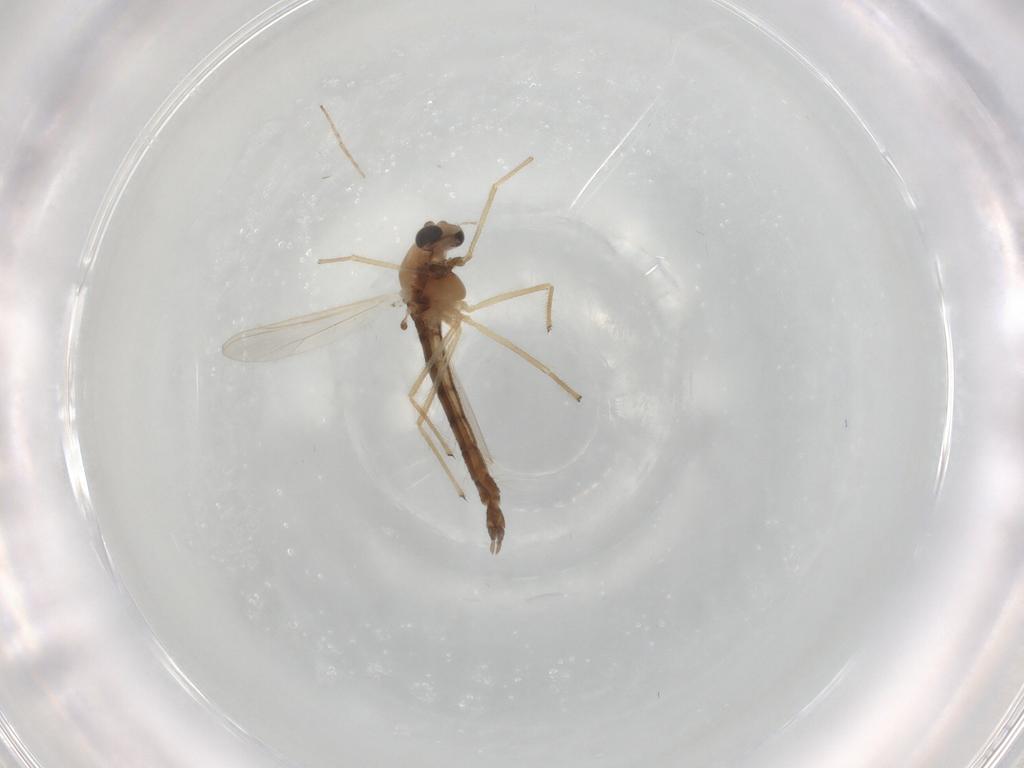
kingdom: Animalia
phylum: Arthropoda
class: Insecta
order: Diptera
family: Chironomidae
